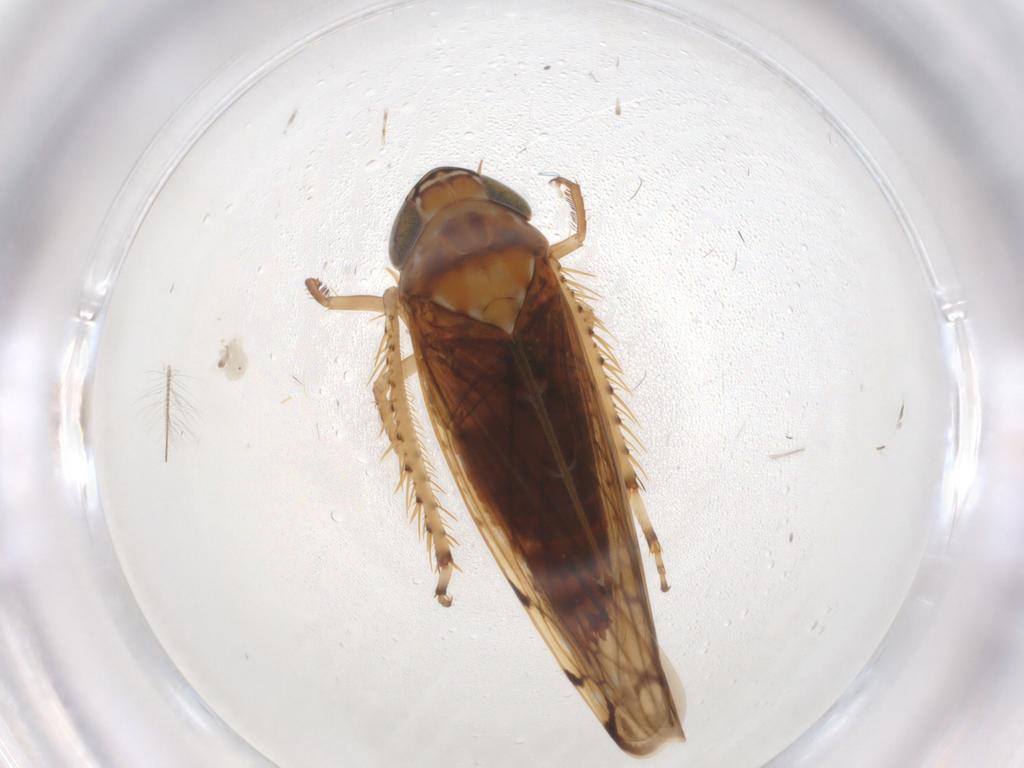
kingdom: Animalia
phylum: Arthropoda
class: Insecta
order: Hemiptera
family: Cicadellidae
